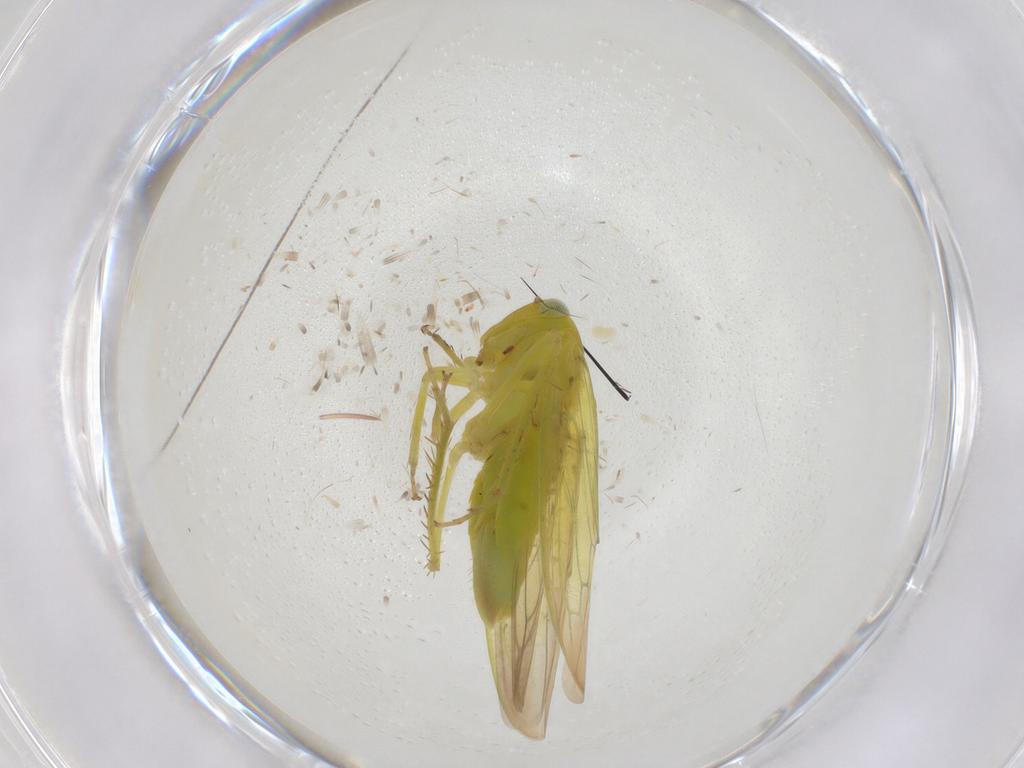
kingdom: Animalia
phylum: Arthropoda
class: Insecta
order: Hemiptera
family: Cicadellidae
